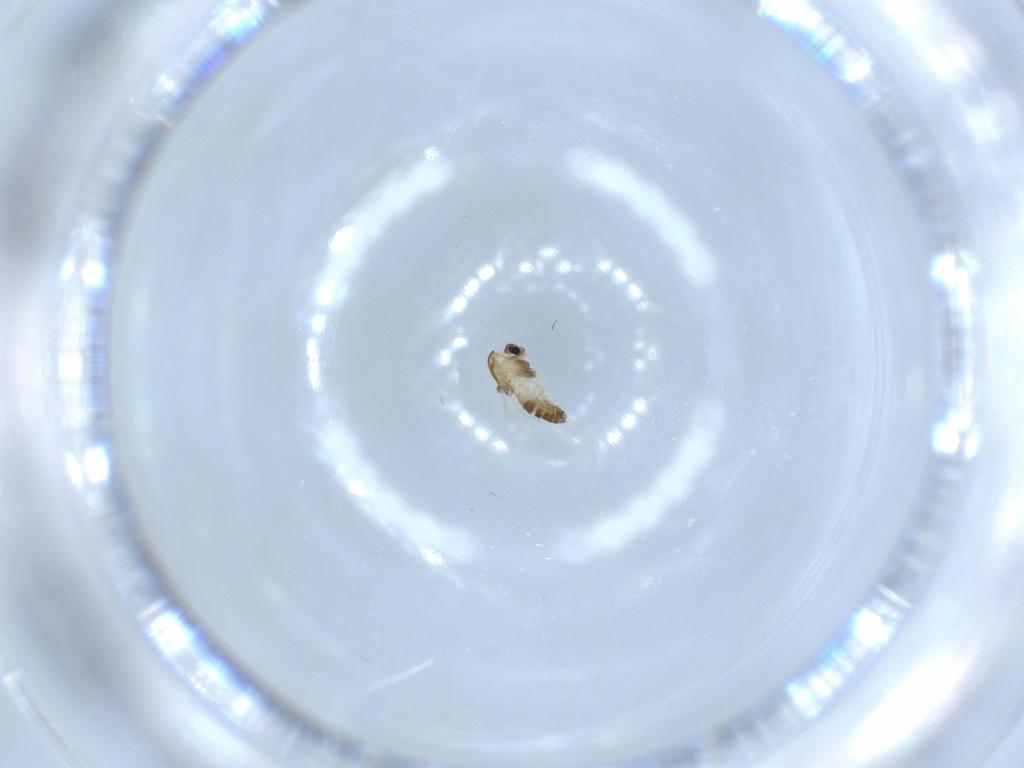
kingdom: Animalia
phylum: Arthropoda
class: Insecta
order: Diptera
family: Chironomidae
